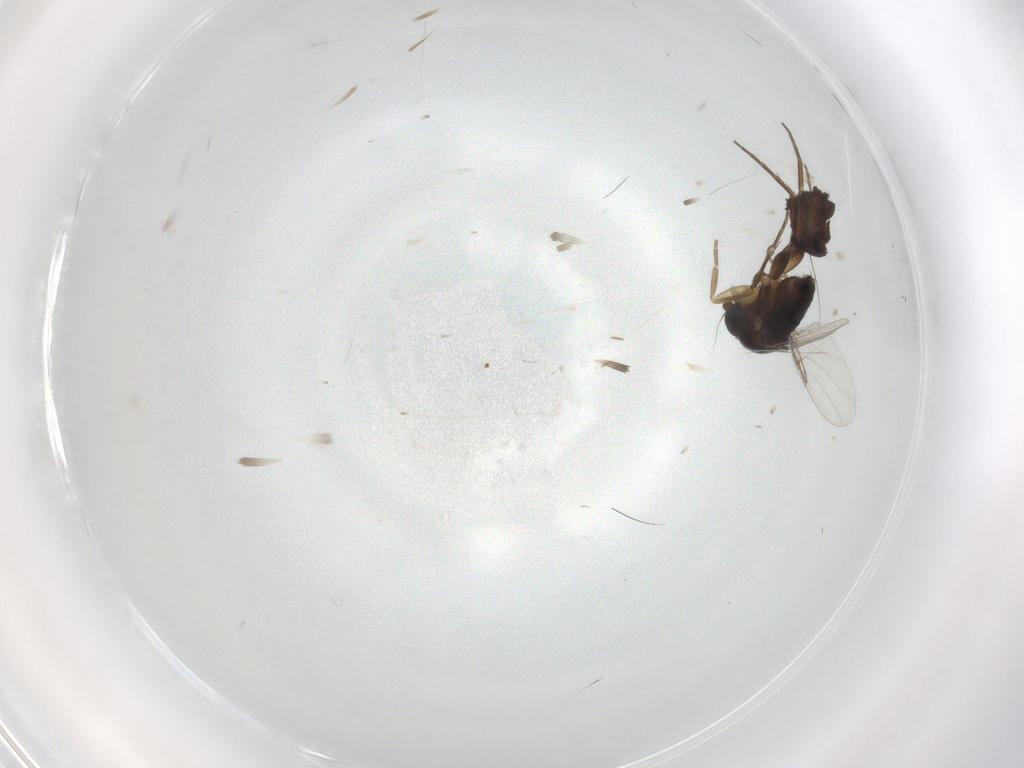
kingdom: Animalia
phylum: Arthropoda
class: Insecta
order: Diptera
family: Phoridae
